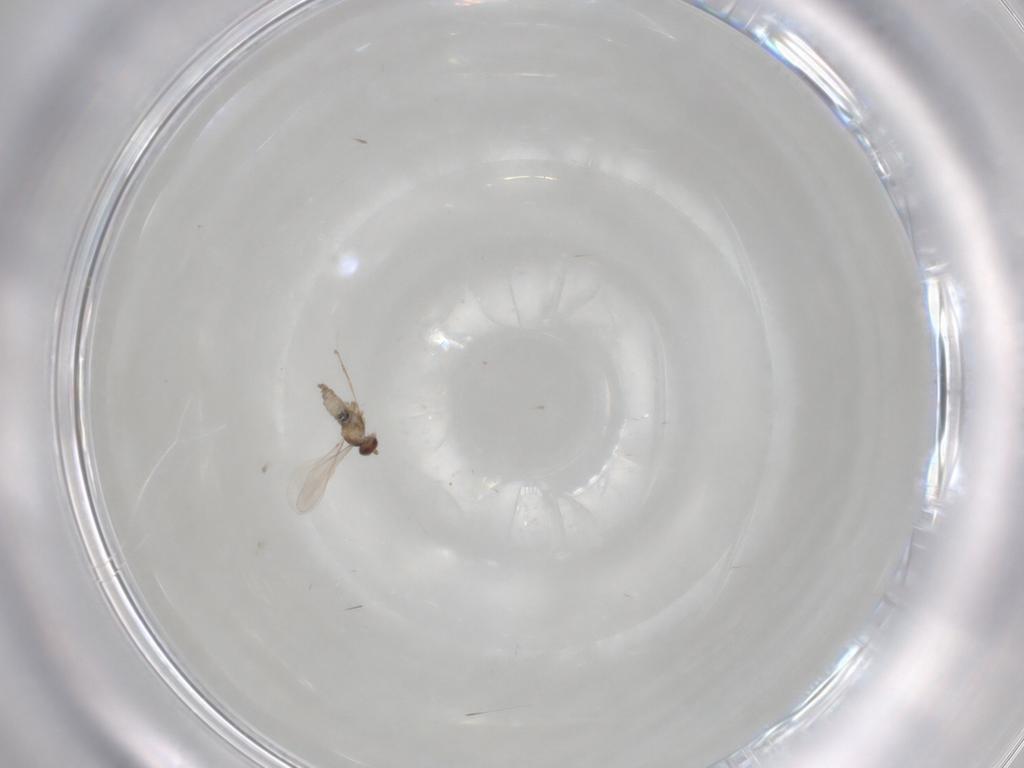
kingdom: Animalia
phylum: Arthropoda
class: Insecta
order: Diptera
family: Cecidomyiidae
